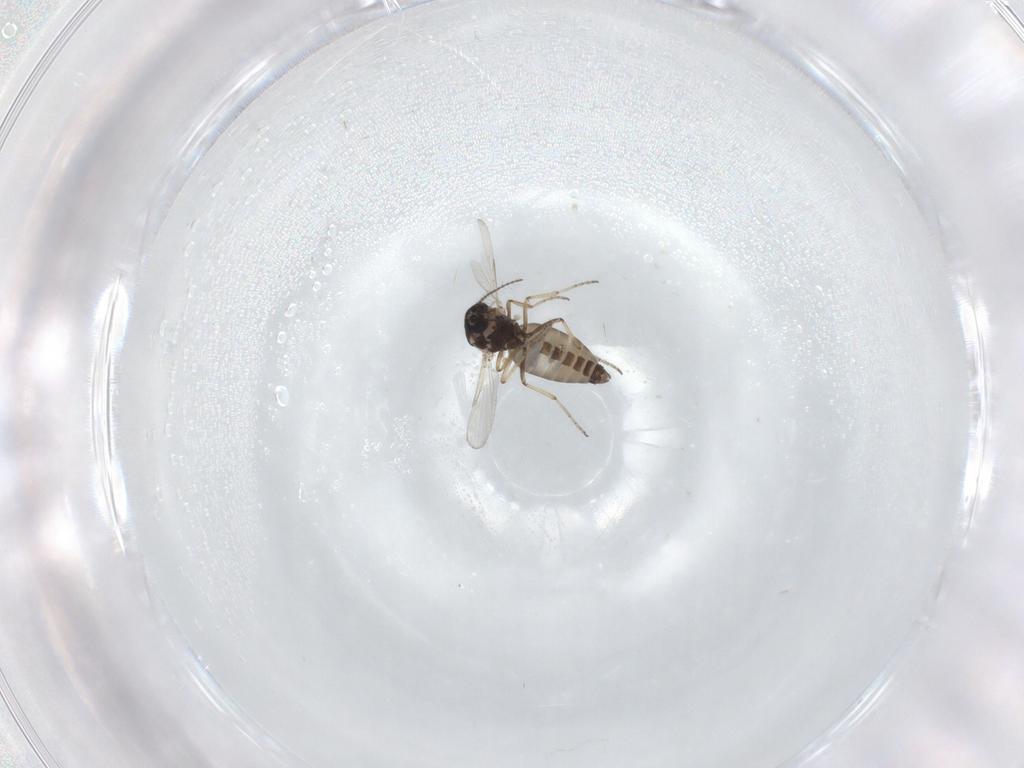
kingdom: Animalia
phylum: Arthropoda
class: Insecta
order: Diptera
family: Ceratopogonidae
